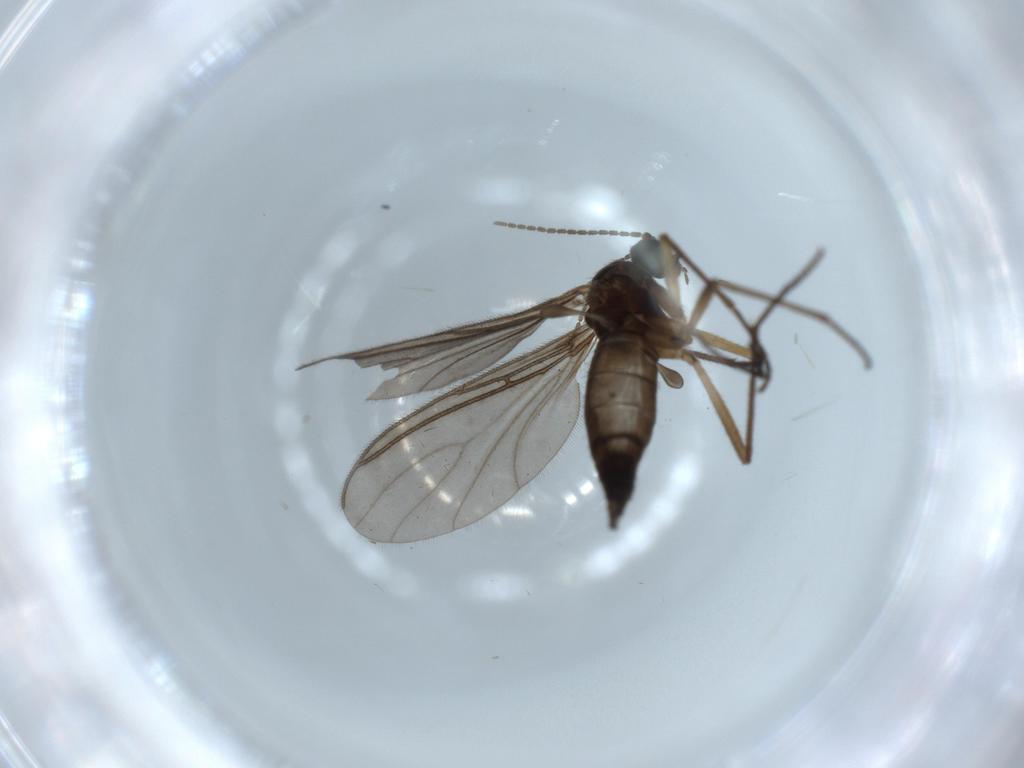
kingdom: Animalia
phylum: Arthropoda
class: Insecta
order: Diptera
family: Sciaridae
